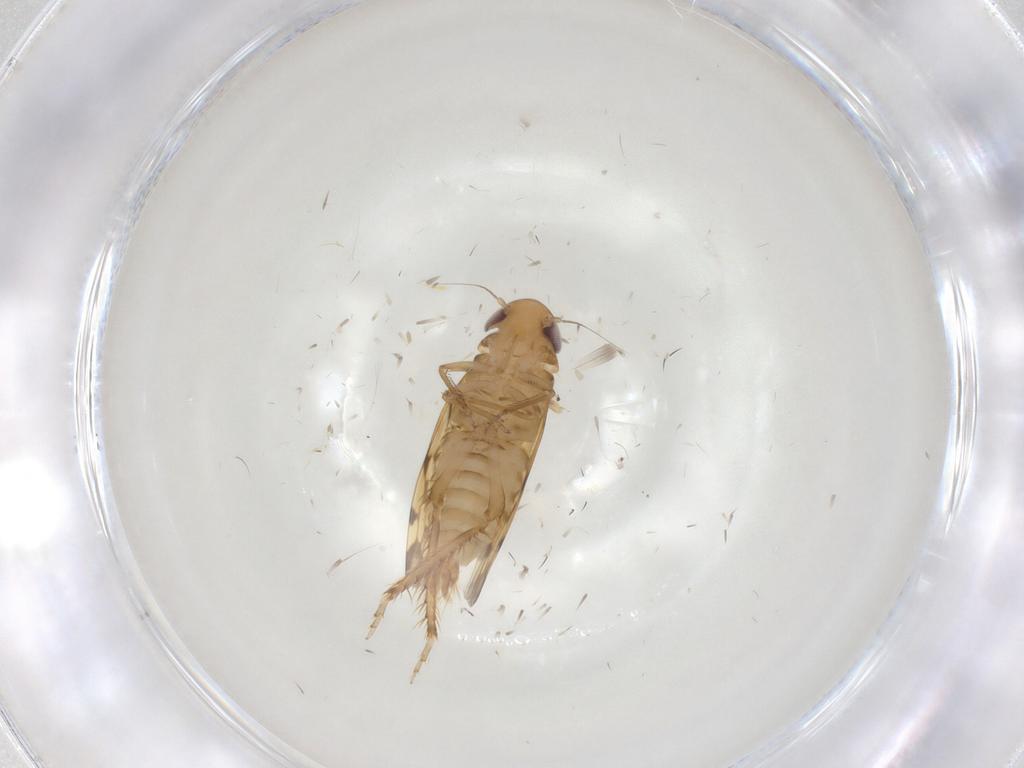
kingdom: Animalia
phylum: Arthropoda
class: Insecta
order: Hemiptera
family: Cicadellidae
